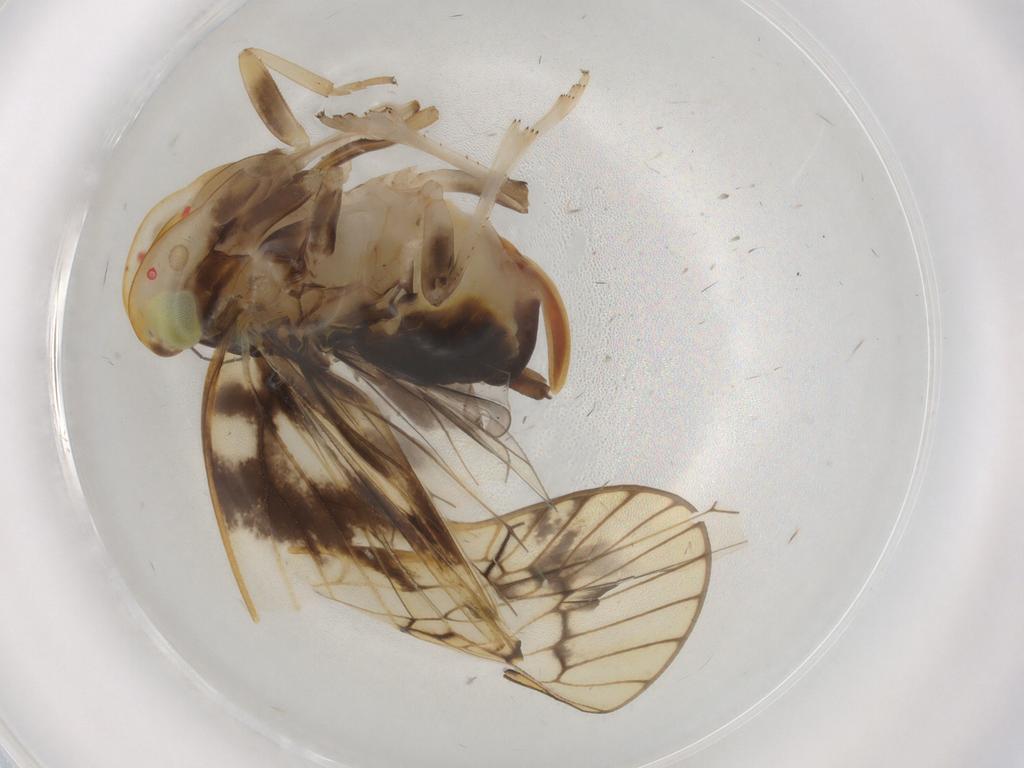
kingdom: Animalia
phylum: Arthropoda
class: Insecta
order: Hemiptera
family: Cixiidae
